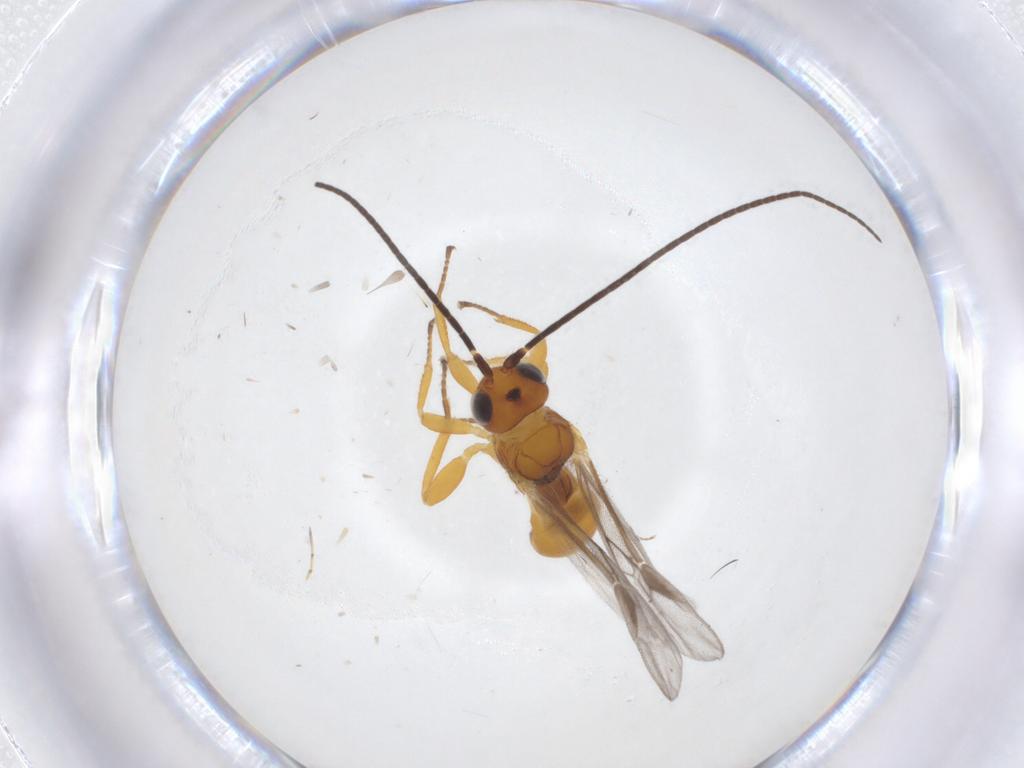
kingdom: Animalia
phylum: Arthropoda
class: Insecta
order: Hymenoptera
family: Braconidae
